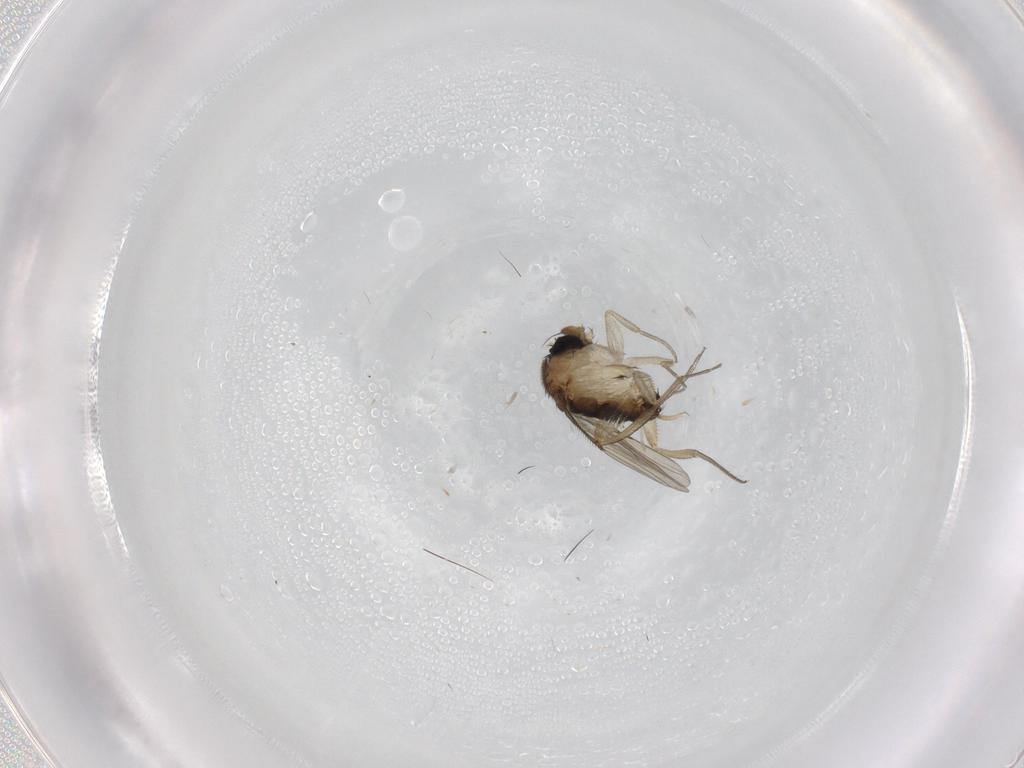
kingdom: Animalia
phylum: Arthropoda
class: Insecta
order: Diptera
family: Phoridae
